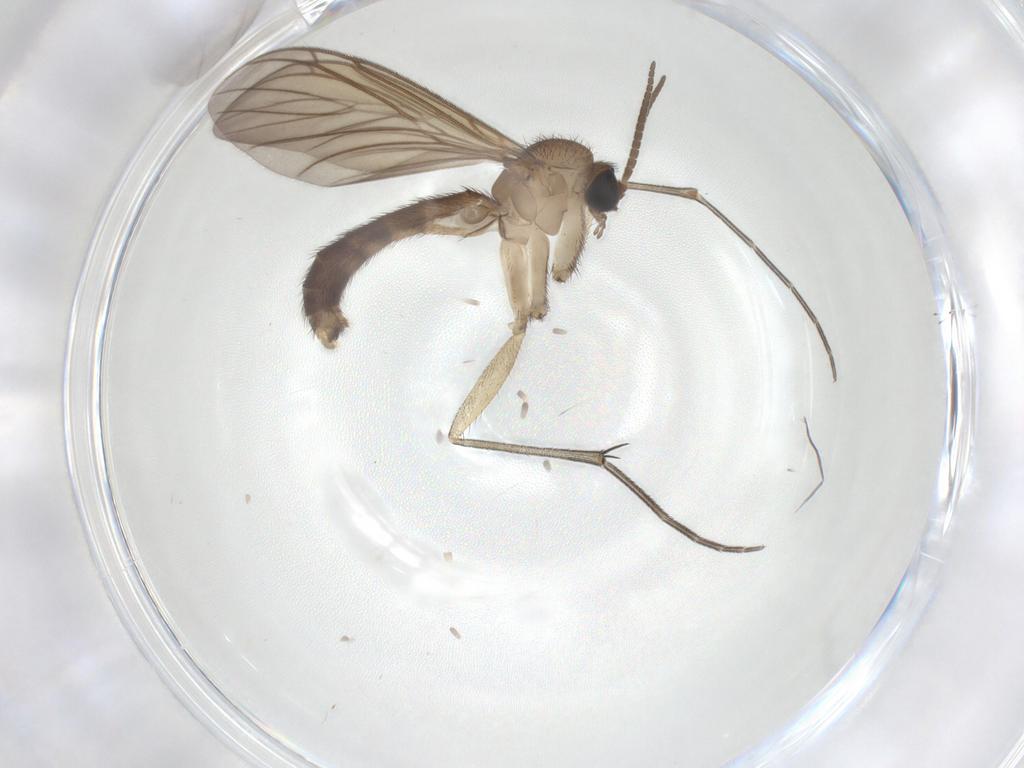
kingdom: Animalia
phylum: Arthropoda
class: Insecta
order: Diptera
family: Keroplatidae
